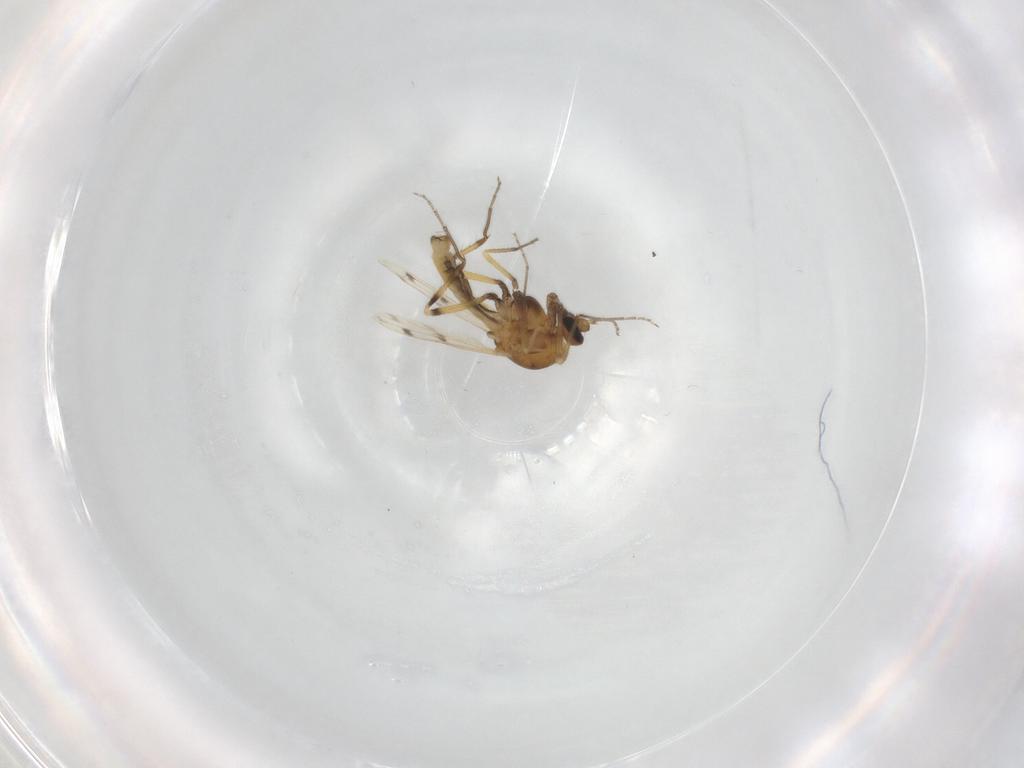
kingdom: Animalia
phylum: Arthropoda
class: Insecta
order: Diptera
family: Ceratopogonidae
